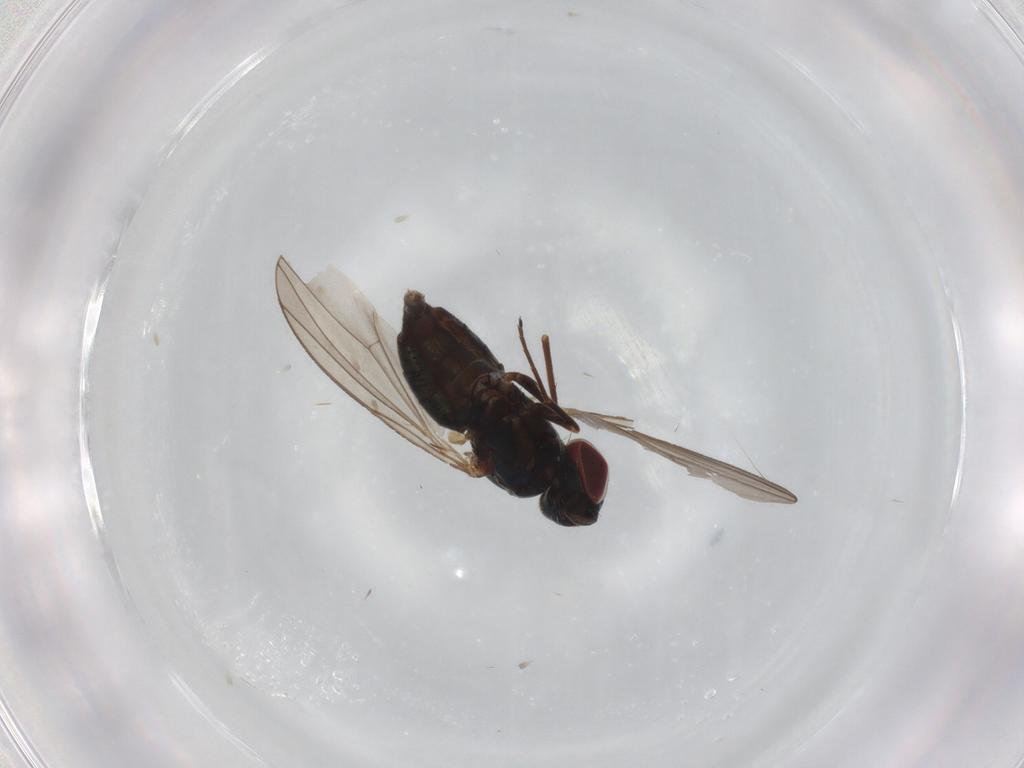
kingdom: Animalia
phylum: Arthropoda
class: Insecta
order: Diptera
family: Dolichopodidae
